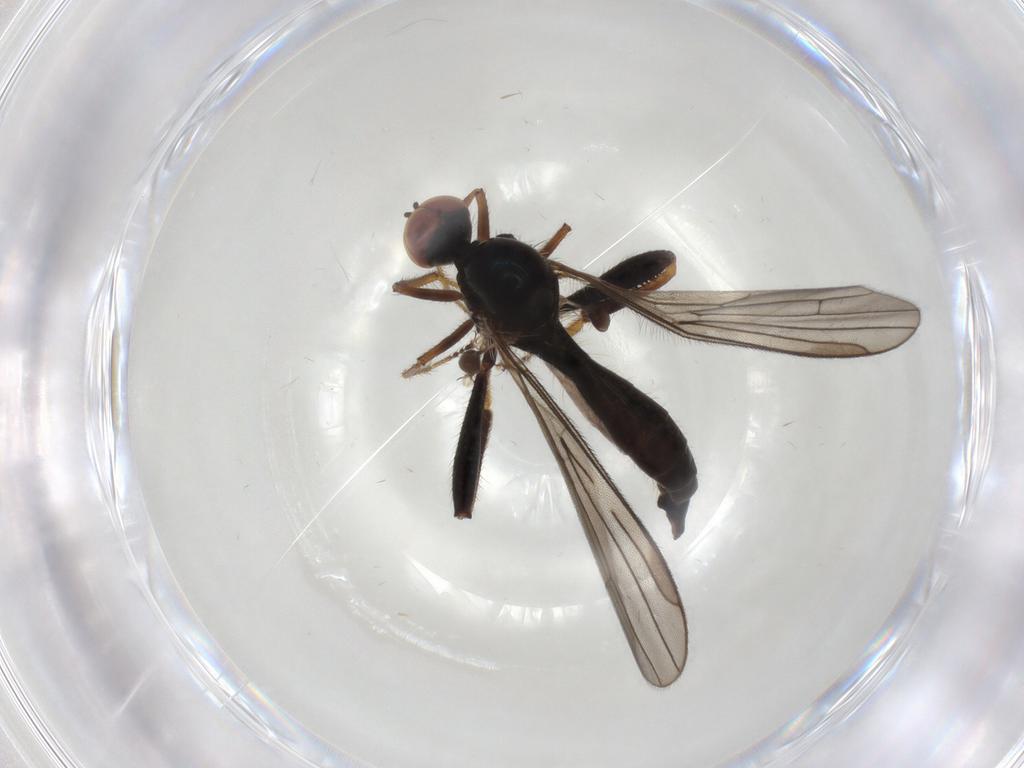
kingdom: Animalia
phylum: Arthropoda
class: Insecta
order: Diptera
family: Hybotidae
